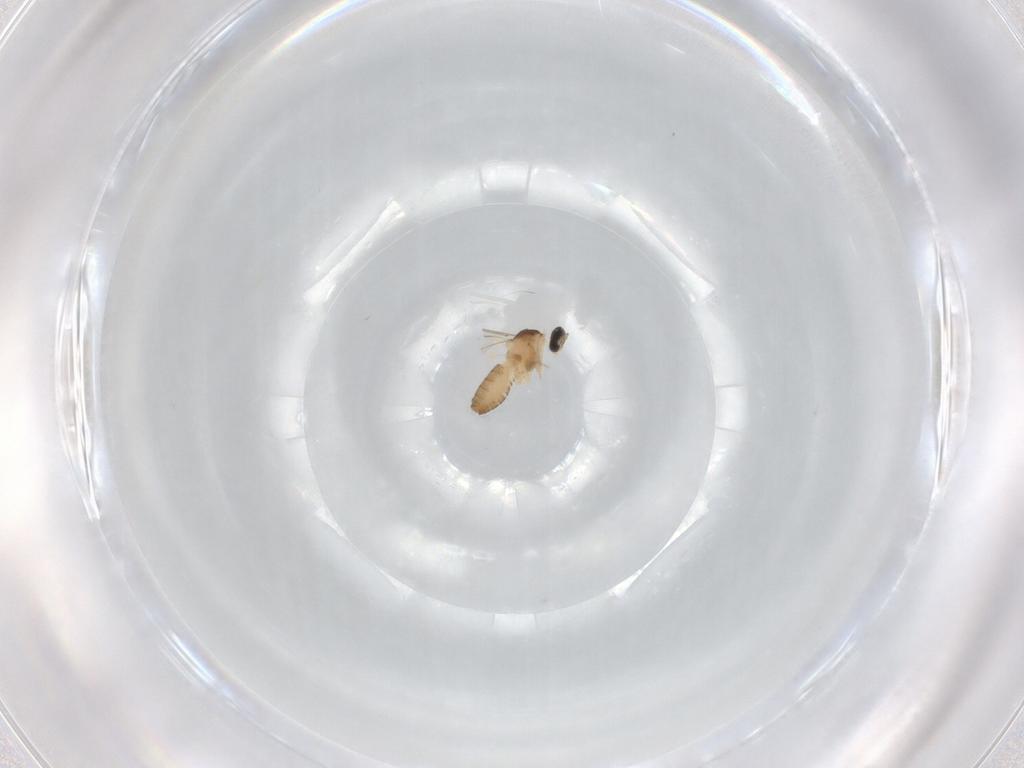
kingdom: Animalia
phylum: Arthropoda
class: Insecta
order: Diptera
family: Cecidomyiidae
